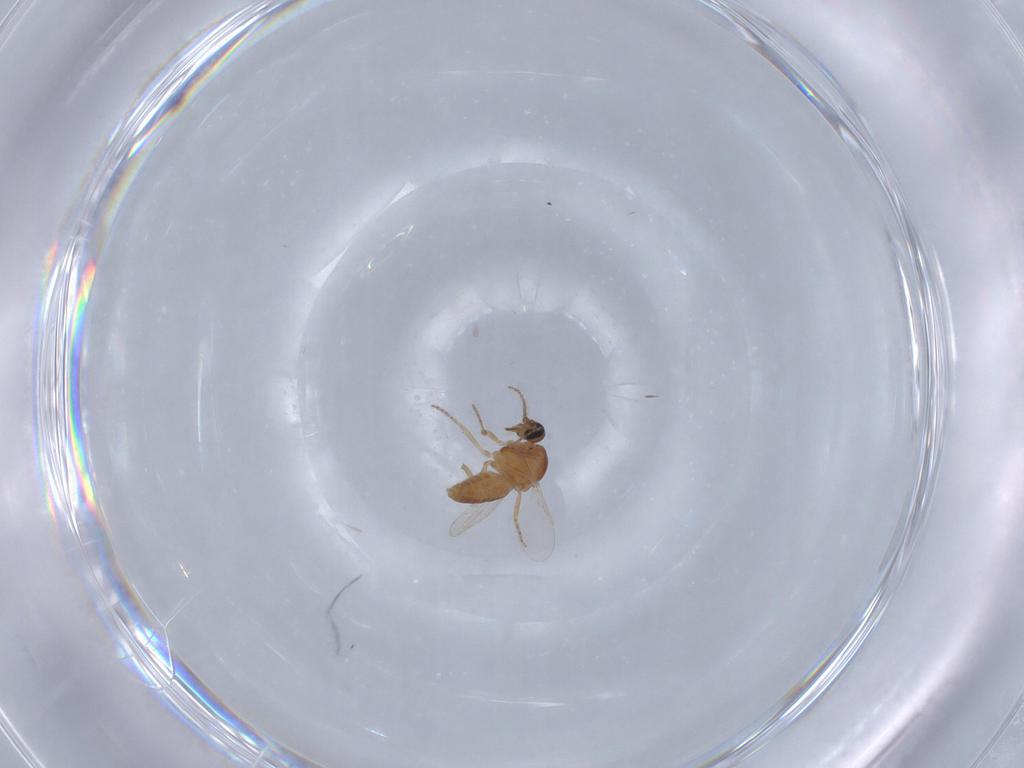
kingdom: Animalia
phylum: Arthropoda
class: Insecta
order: Diptera
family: Ceratopogonidae
